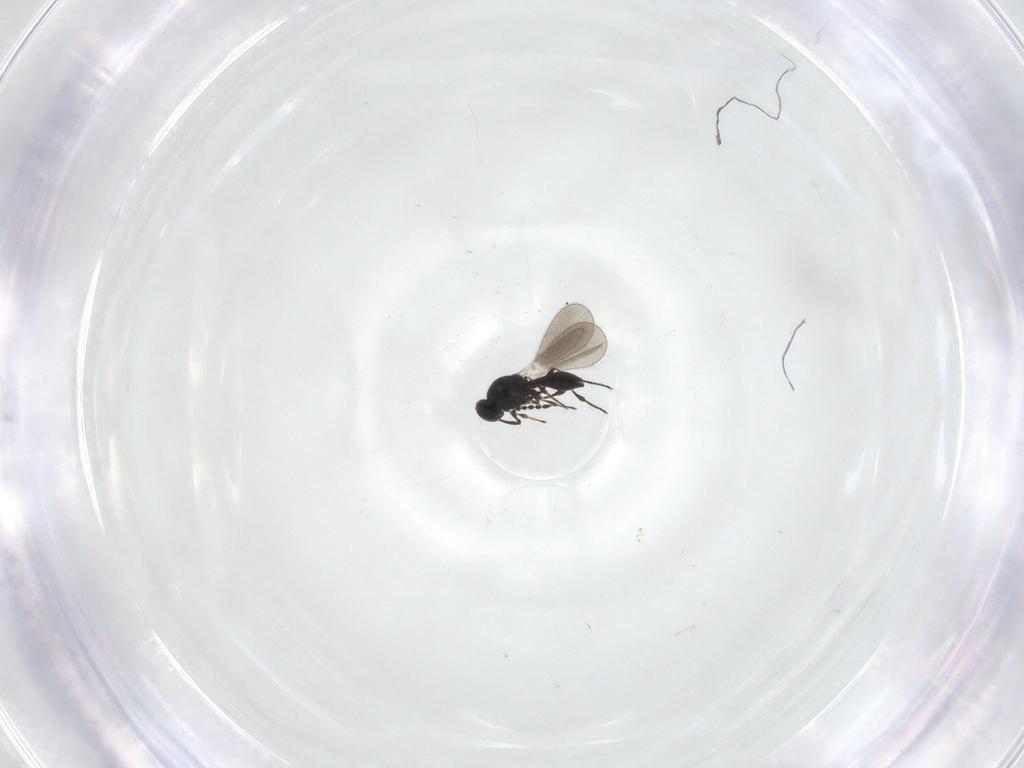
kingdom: Animalia
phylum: Arthropoda
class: Insecta
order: Hymenoptera
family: Platygastridae
